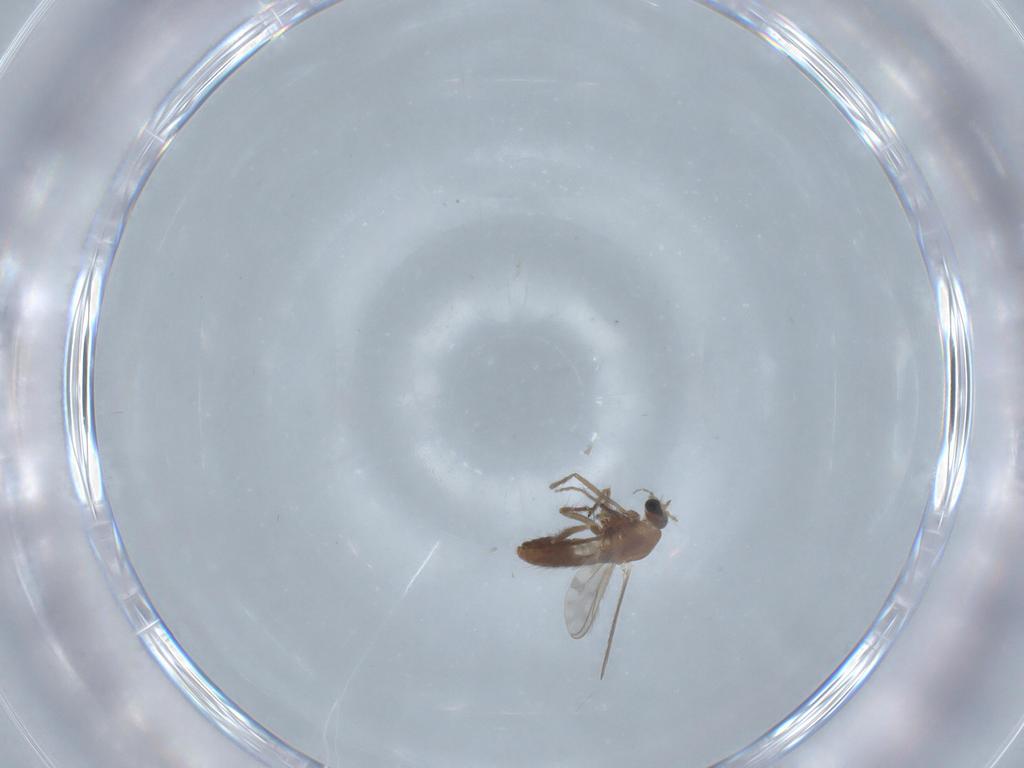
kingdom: Animalia
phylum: Arthropoda
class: Insecta
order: Diptera
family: Chironomidae
